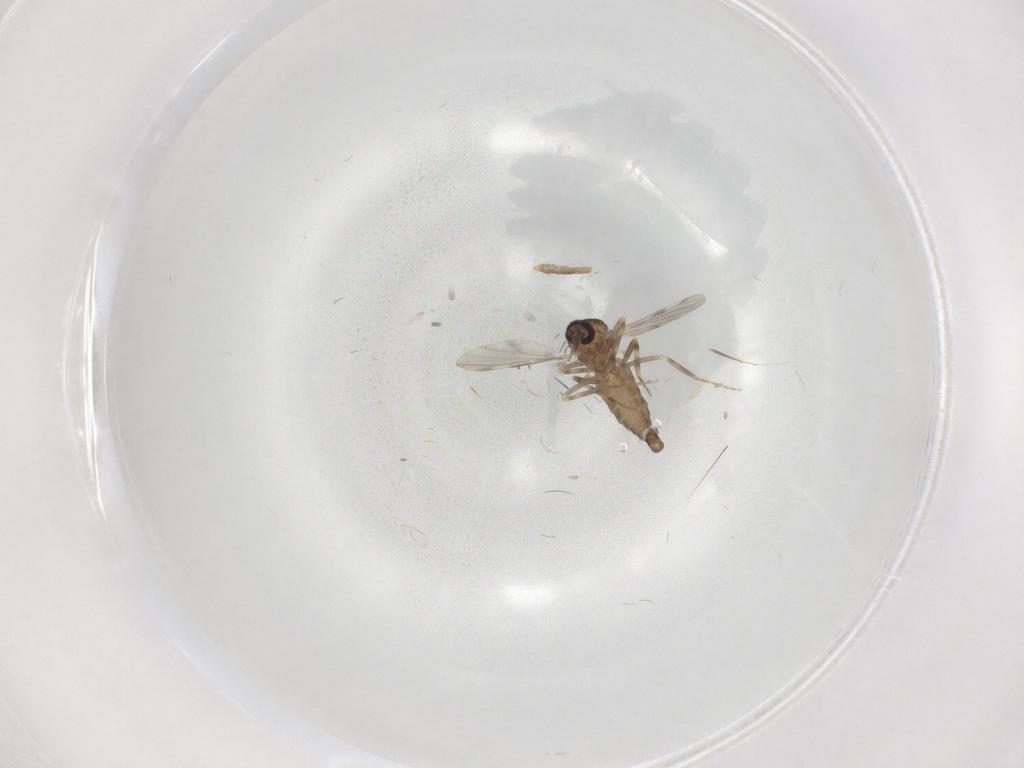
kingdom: Animalia
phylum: Arthropoda
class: Insecta
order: Diptera
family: Ceratopogonidae
